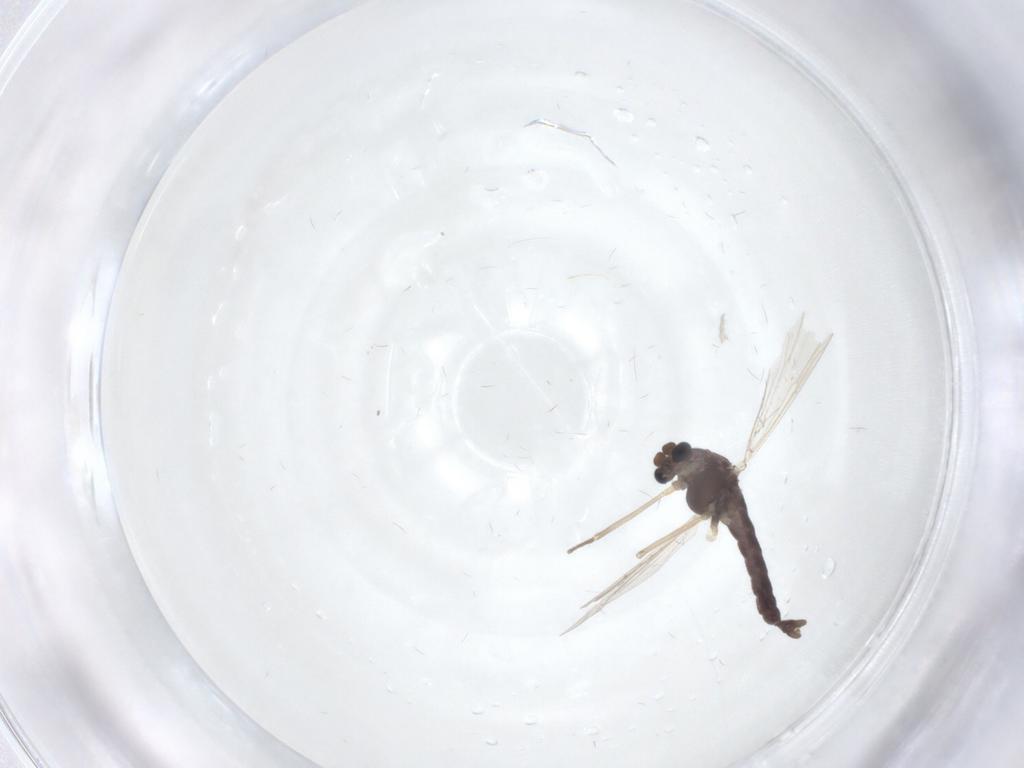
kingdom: Animalia
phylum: Arthropoda
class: Insecta
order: Diptera
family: Chironomidae
